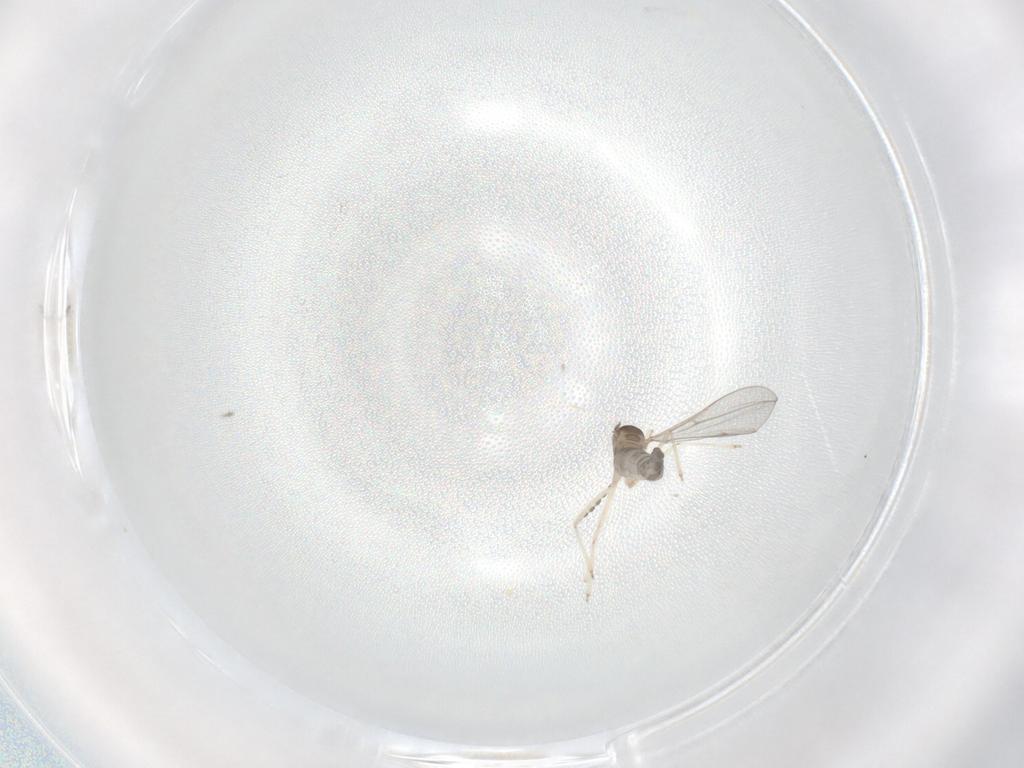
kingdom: Animalia
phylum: Arthropoda
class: Insecta
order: Diptera
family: Cecidomyiidae
